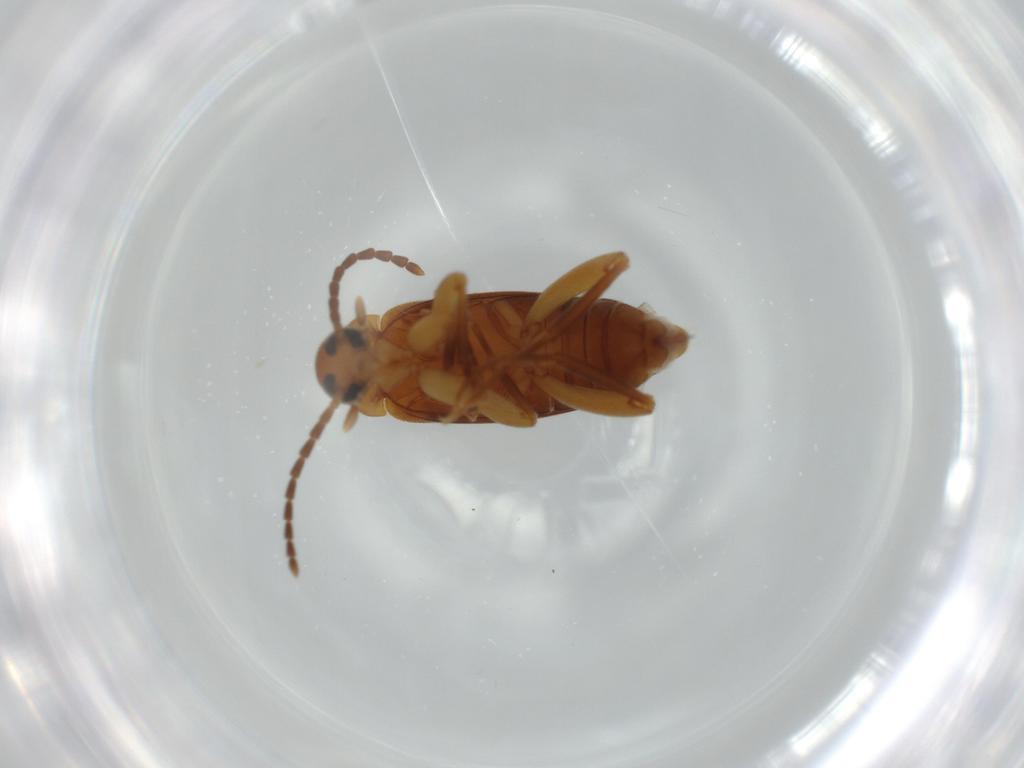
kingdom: Animalia
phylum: Arthropoda
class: Insecta
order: Coleoptera
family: Scraptiidae
